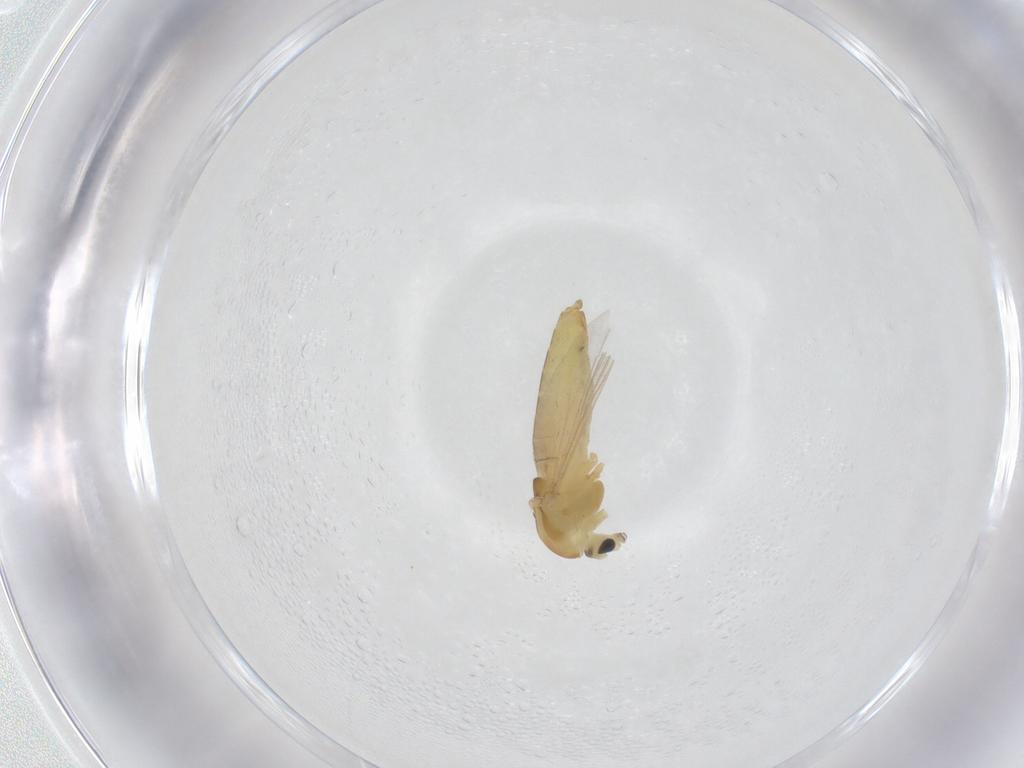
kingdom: Animalia
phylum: Arthropoda
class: Insecta
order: Diptera
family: Chironomidae
